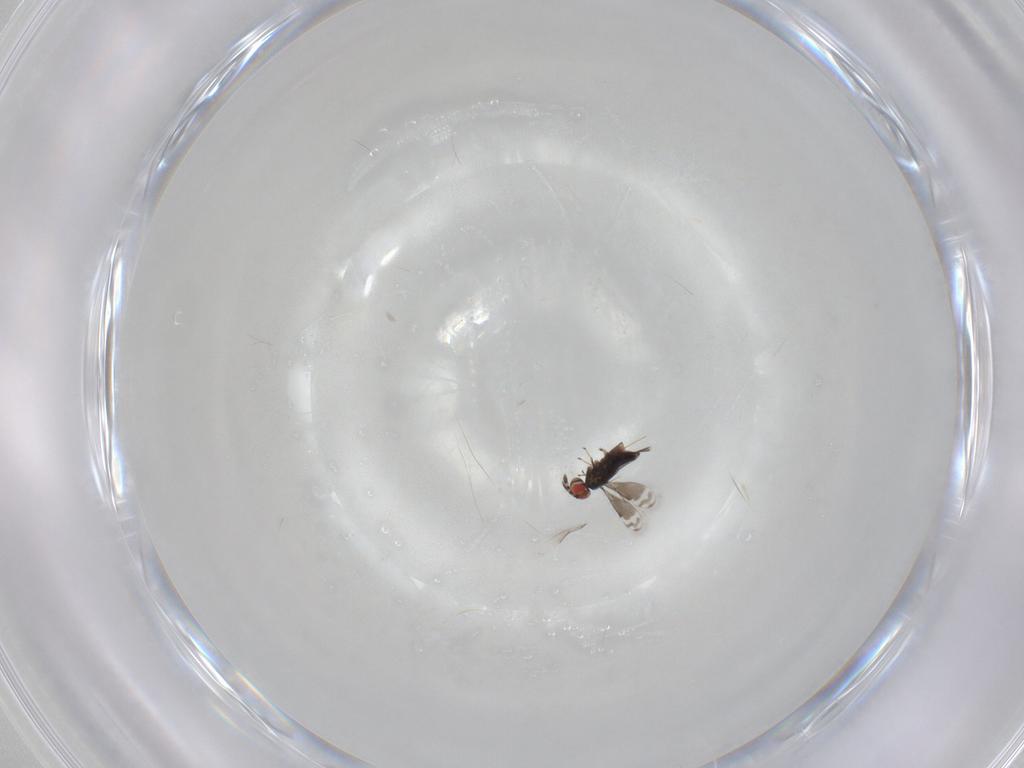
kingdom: Animalia
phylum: Arthropoda
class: Insecta
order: Hymenoptera
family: Azotidae
